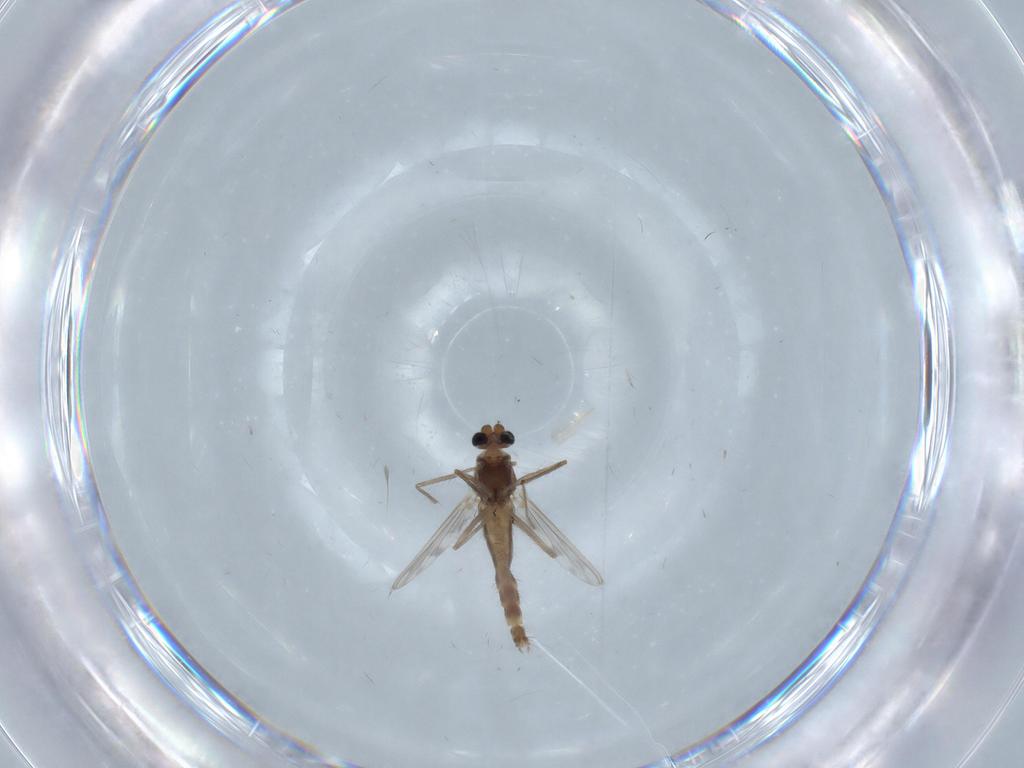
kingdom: Animalia
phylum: Arthropoda
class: Insecta
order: Diptera
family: Chironomidae
